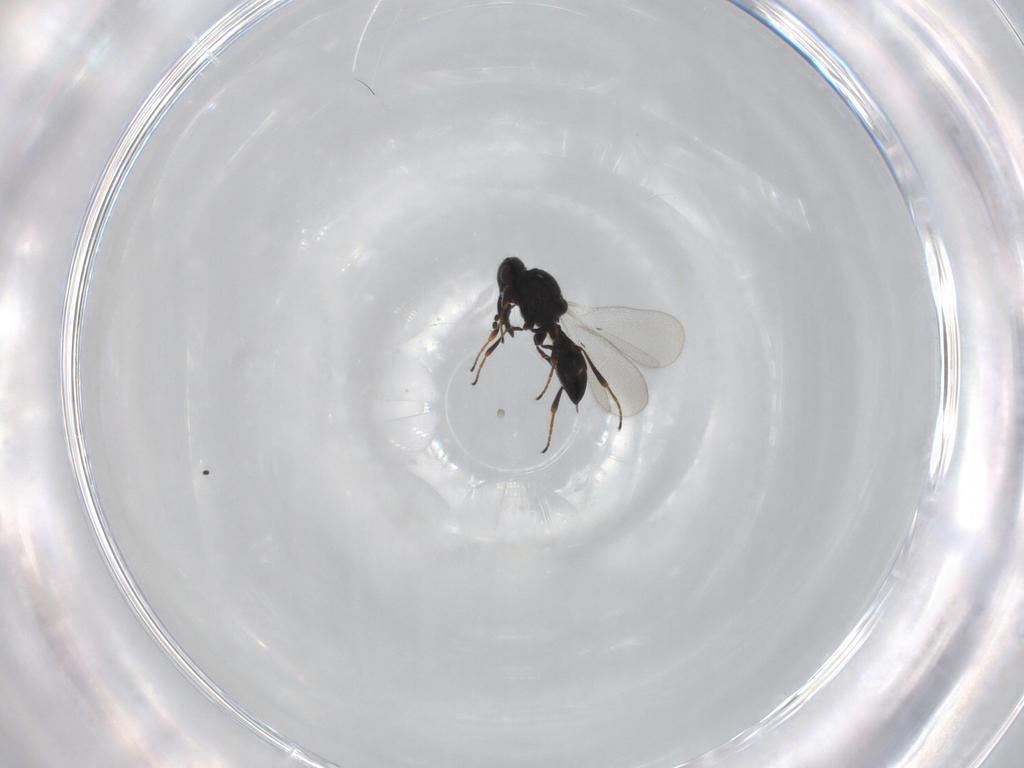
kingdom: Animalia
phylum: Arthropoda
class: Insecta
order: Hymenoptera
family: Platygastridae
